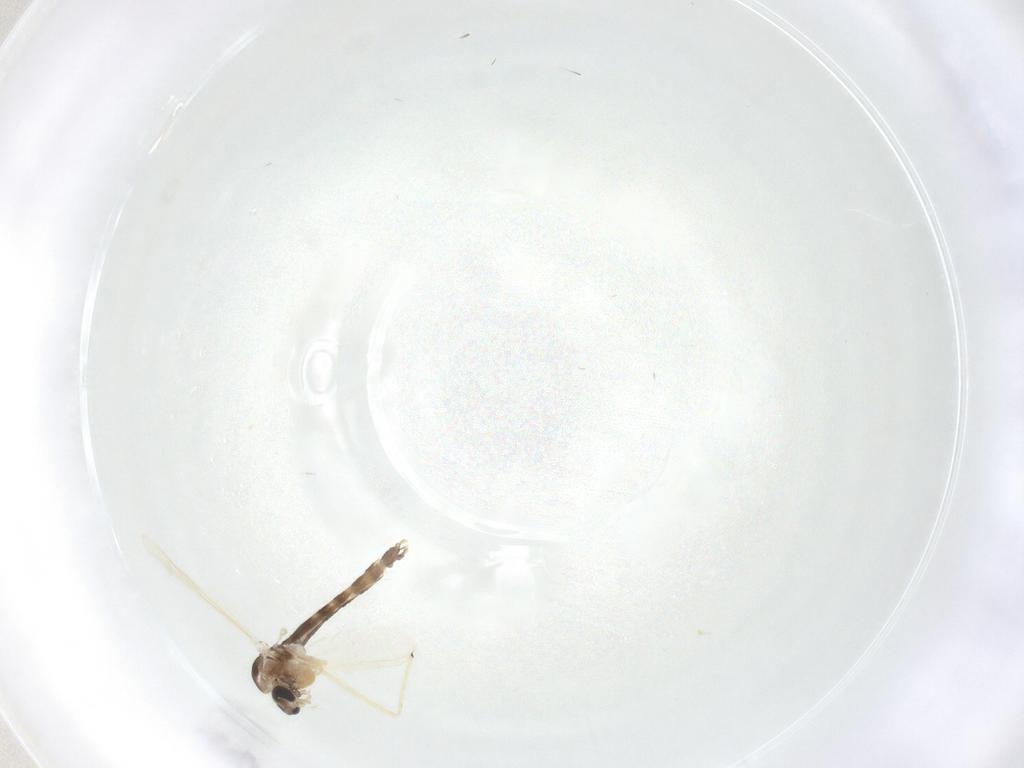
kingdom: Animalia
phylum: Arthropoda
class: Insecta
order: Diptera
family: Chironomidae
